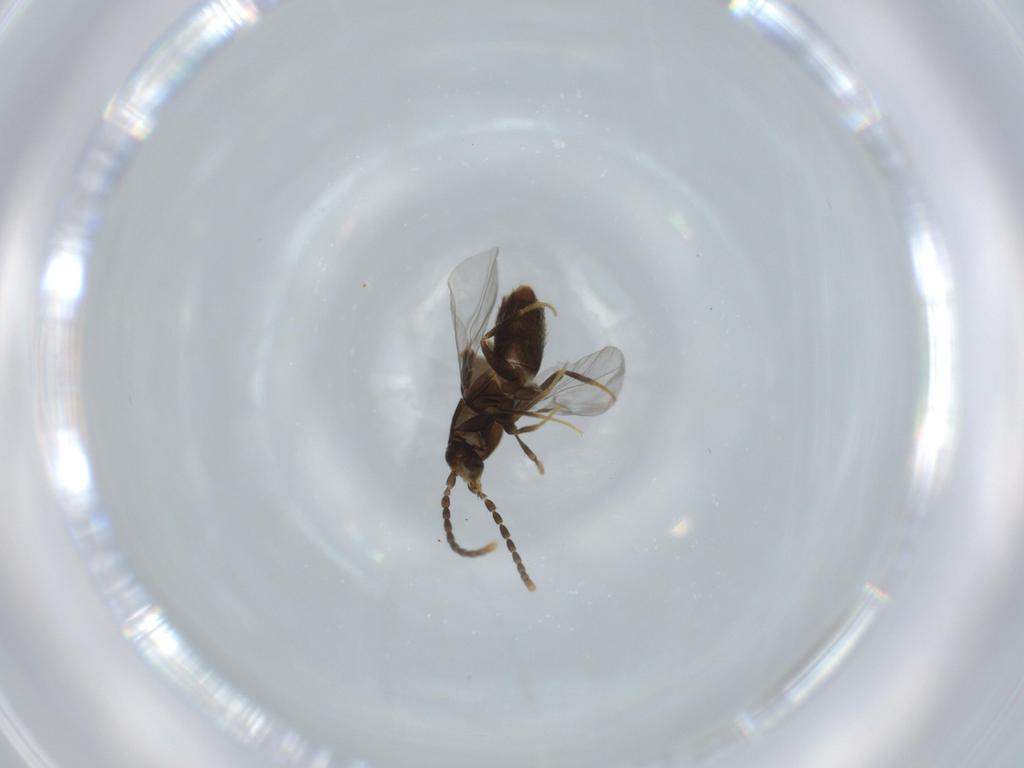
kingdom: Animalia
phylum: Arthropoda
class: Insecta
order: Coleoptera
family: Staphylinidae
